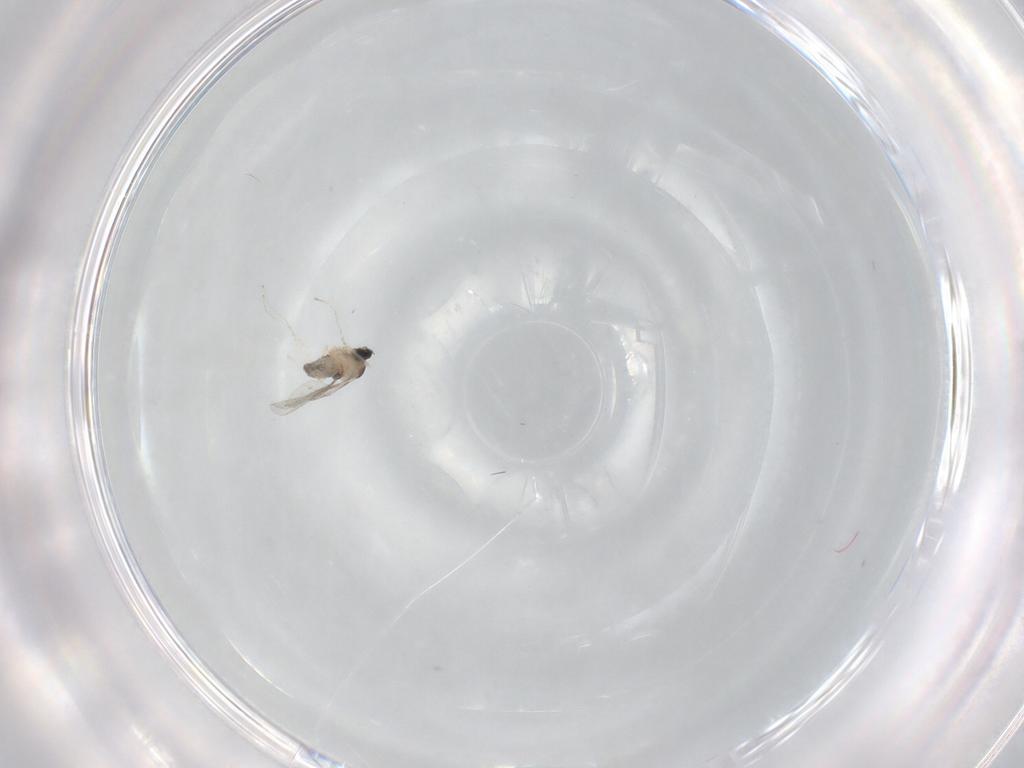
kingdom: Animalia
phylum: Arthropoda
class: Insecta
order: Diptera
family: Cecidomyiidae
